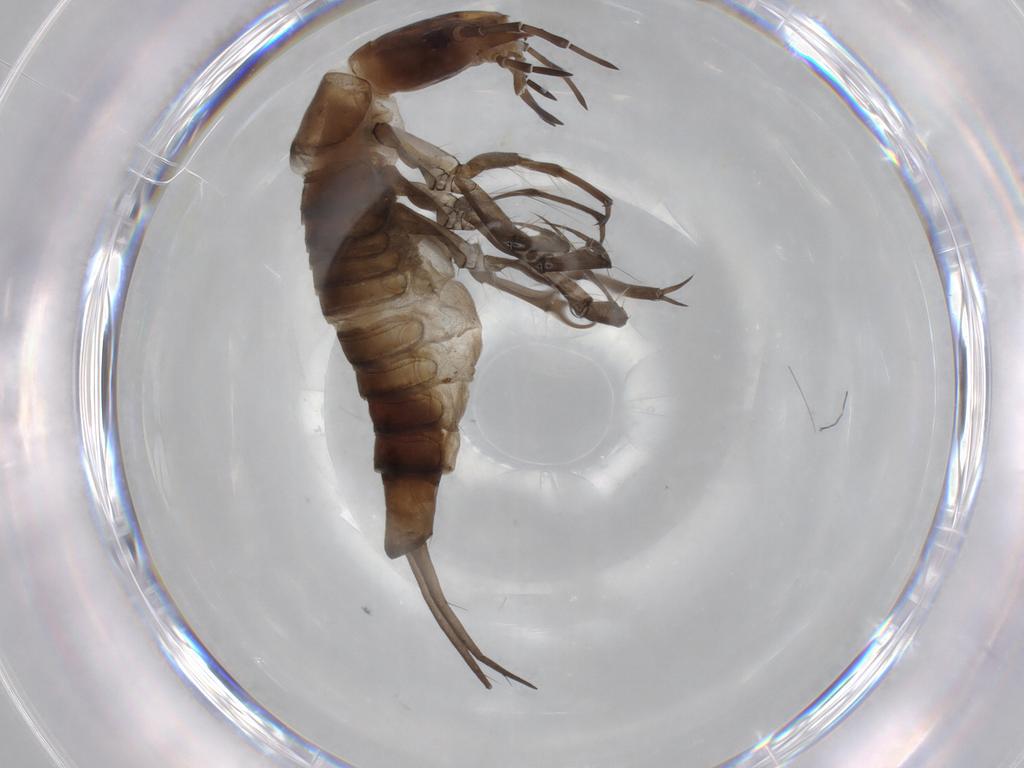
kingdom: Animalia
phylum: Arthropoda
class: Insecta
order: Coleoptera
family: Dytiscidae
